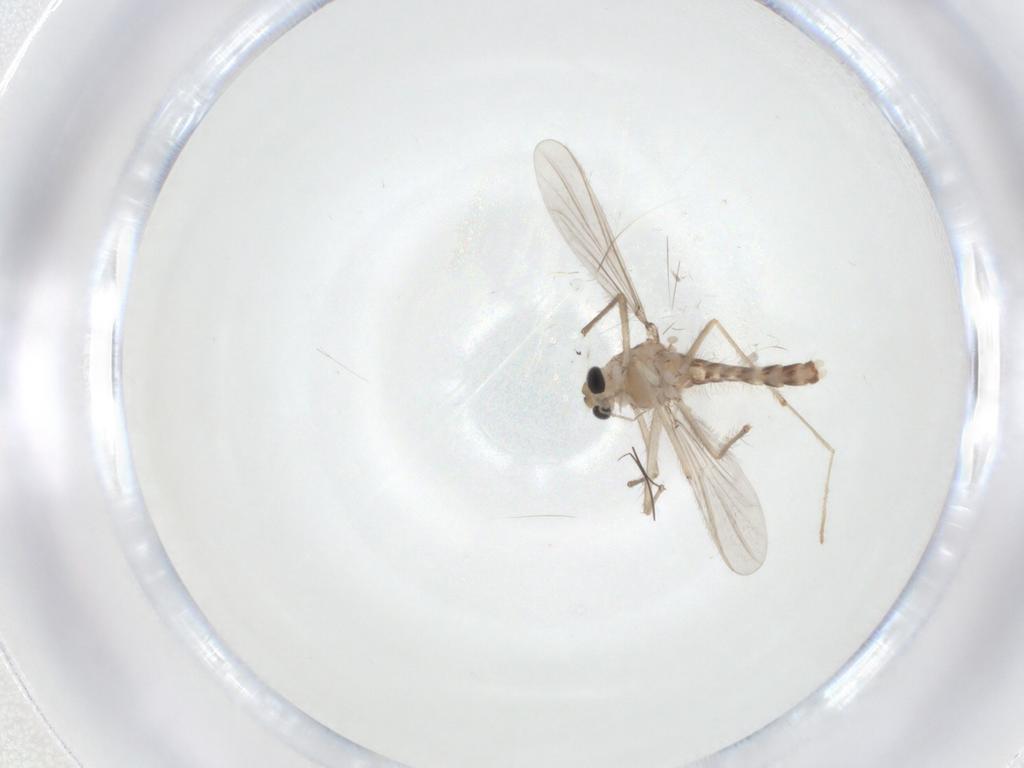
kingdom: Animalia
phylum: Arthropoda
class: Insecta
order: Diptera
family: Chironomidae
